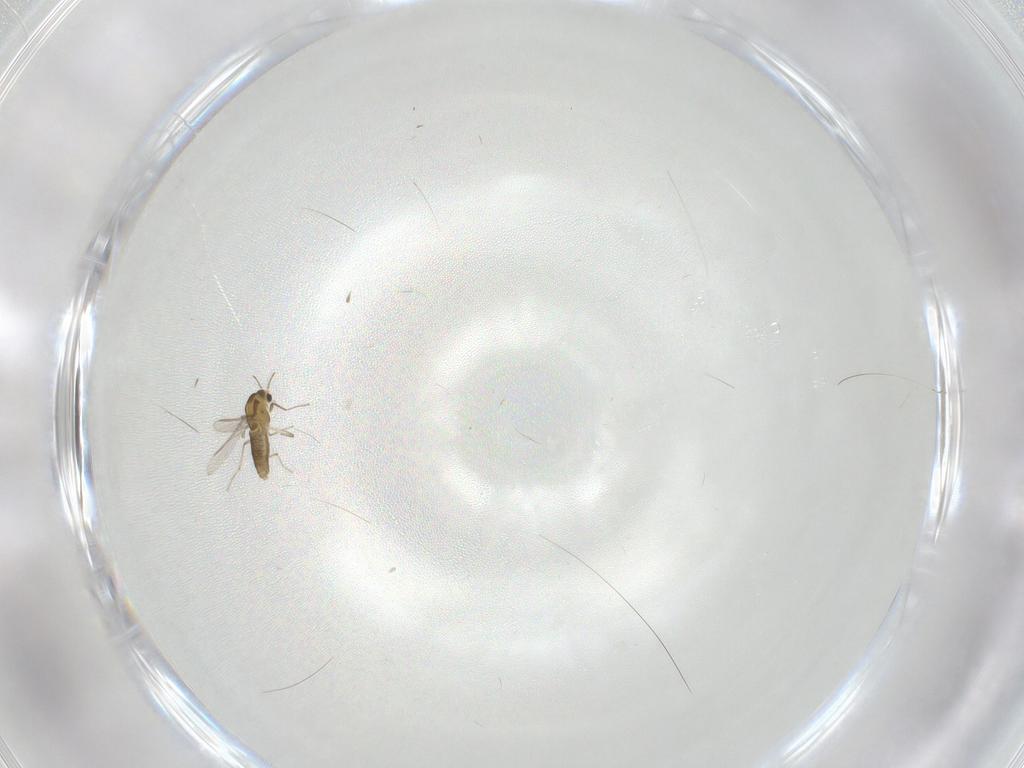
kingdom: Animalia
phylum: Arthropoda
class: Insecta
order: Diptera
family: Chironomidae
